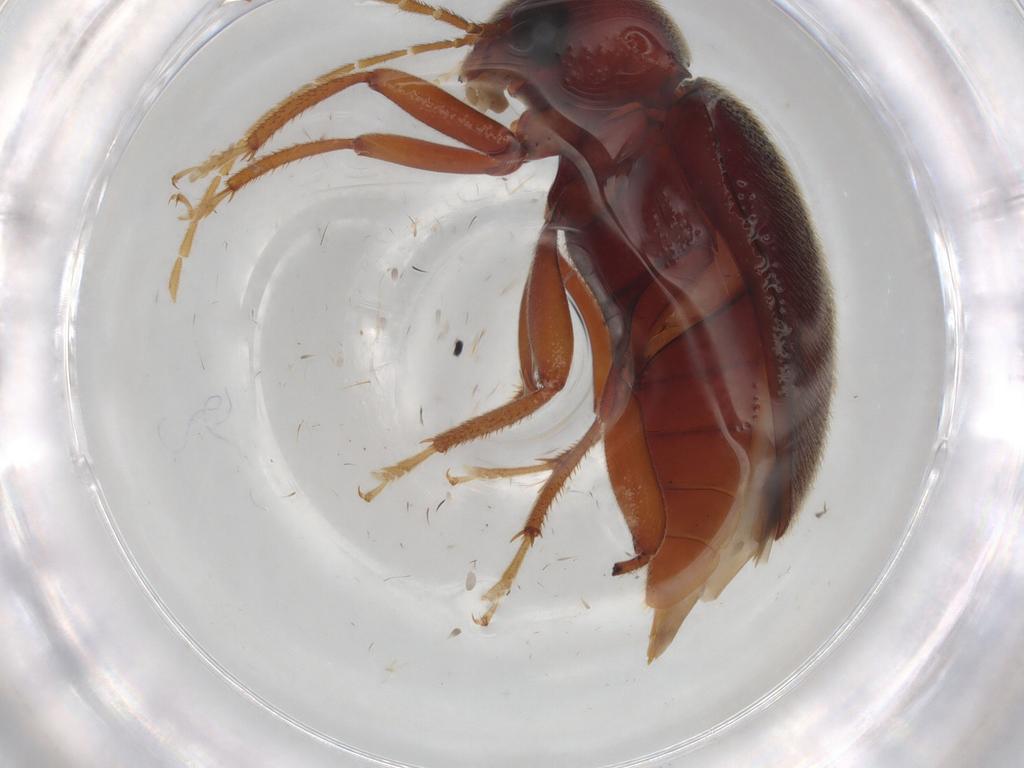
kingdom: Animalia
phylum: Arthropoda
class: Insecta
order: Coleoptera
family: Ptilodactylidae
